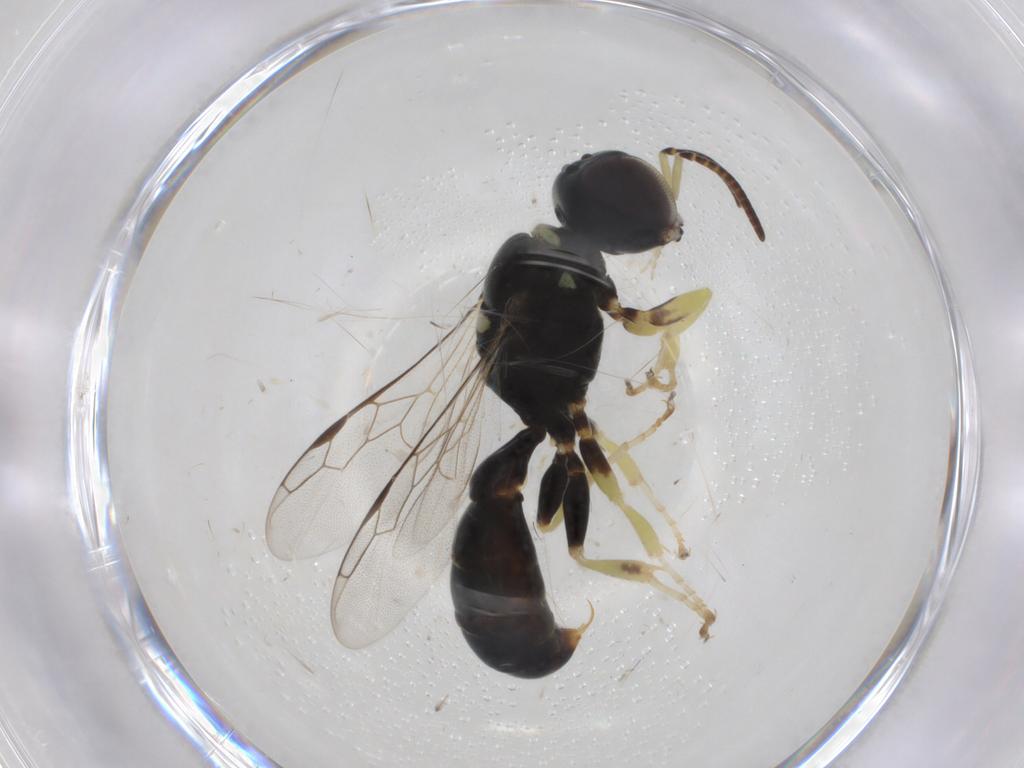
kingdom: Animalia
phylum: Arthropoda
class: Insecta
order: Hymenoptera
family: Crabronidae
